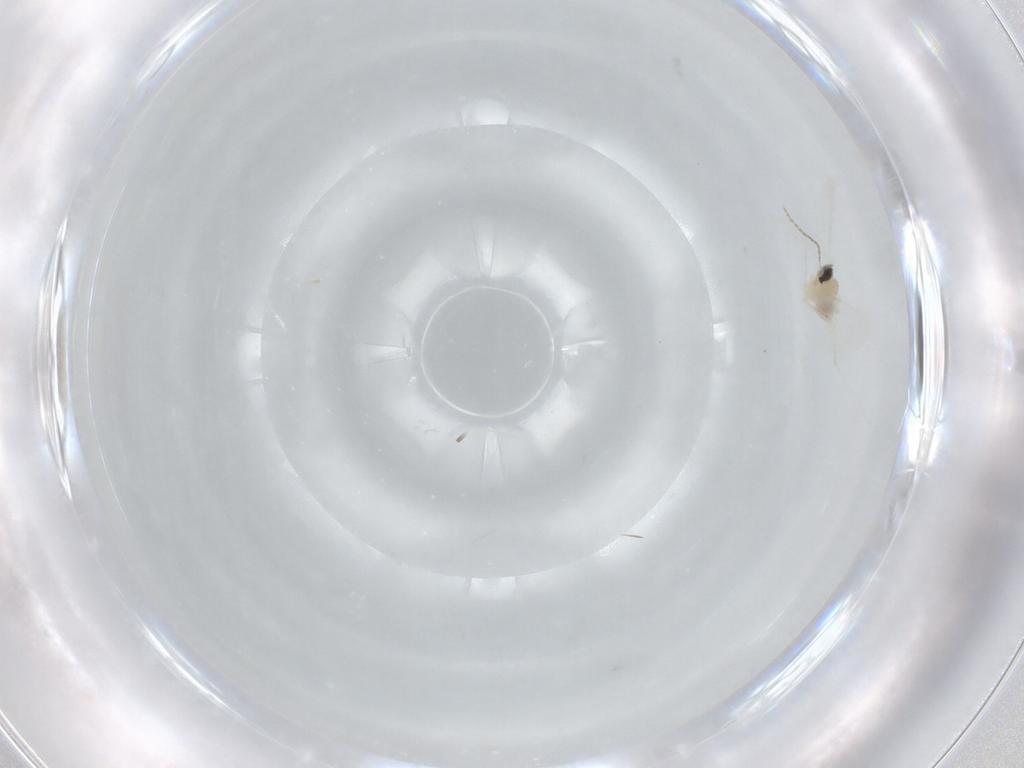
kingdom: Animalia
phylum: Arthropoda
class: Insecta
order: Diptera
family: Cecidomyiidae
